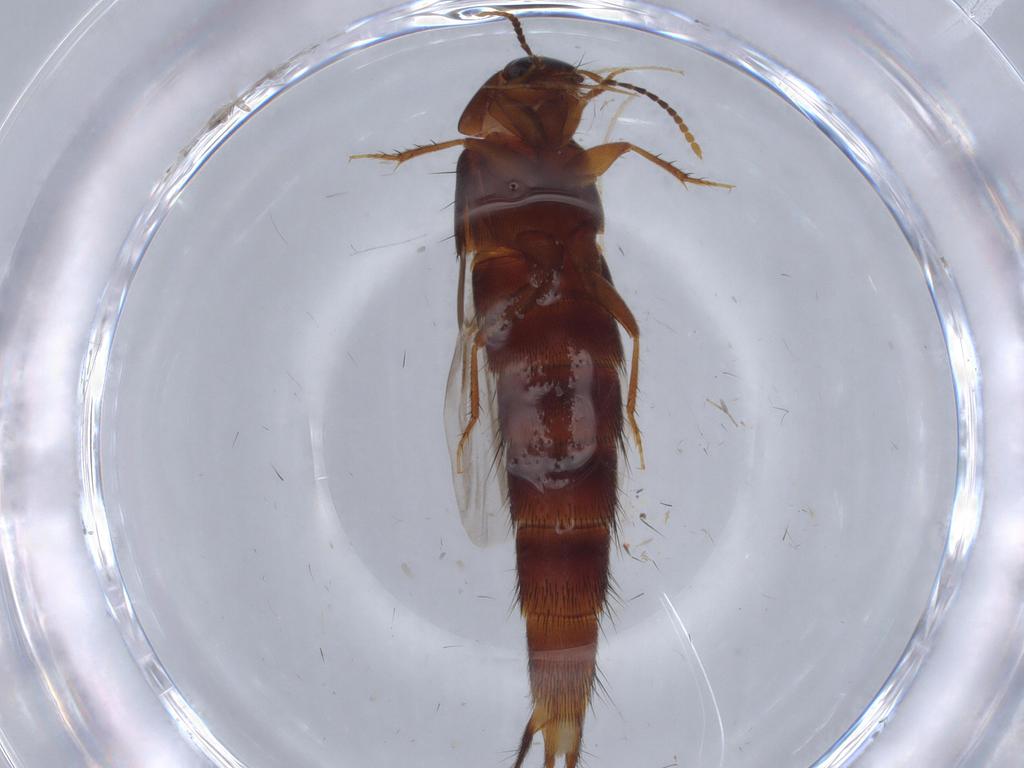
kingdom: Animalia
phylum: Arthropoda
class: Insecta
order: Coleoptera
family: Staphylinidae
